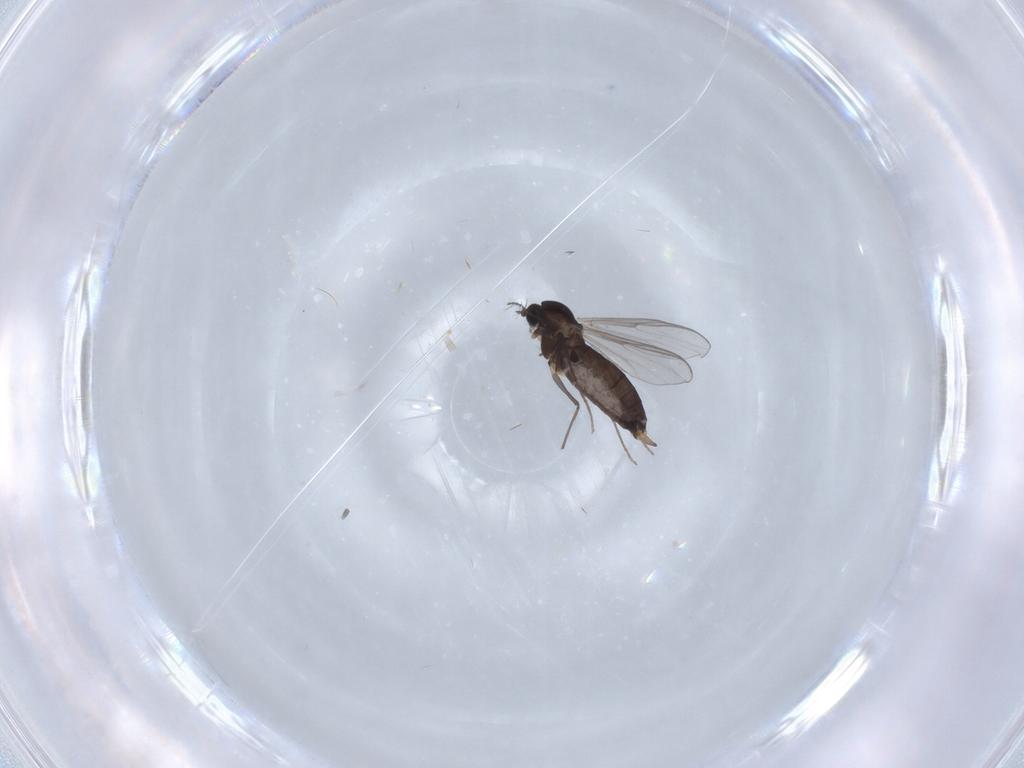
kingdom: Animalia
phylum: Arthropoda
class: Insecta
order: Diptera
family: Chironomidae
